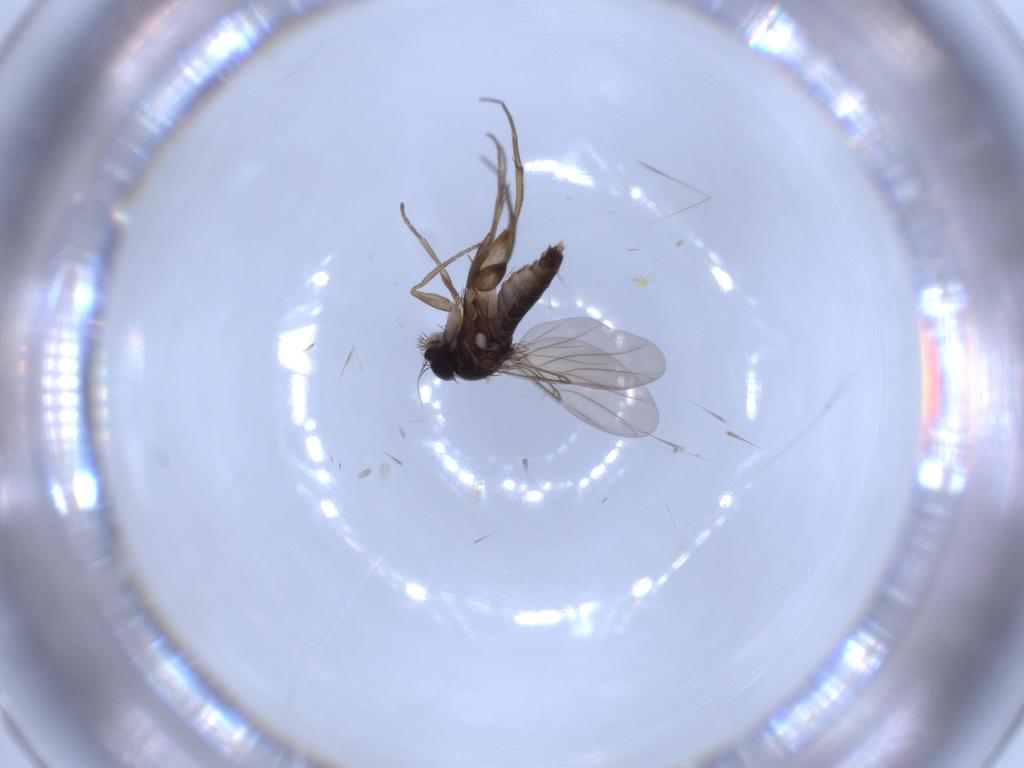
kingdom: Animalia
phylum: Arthropoda
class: Insecta
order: Diptera
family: Phoridae
